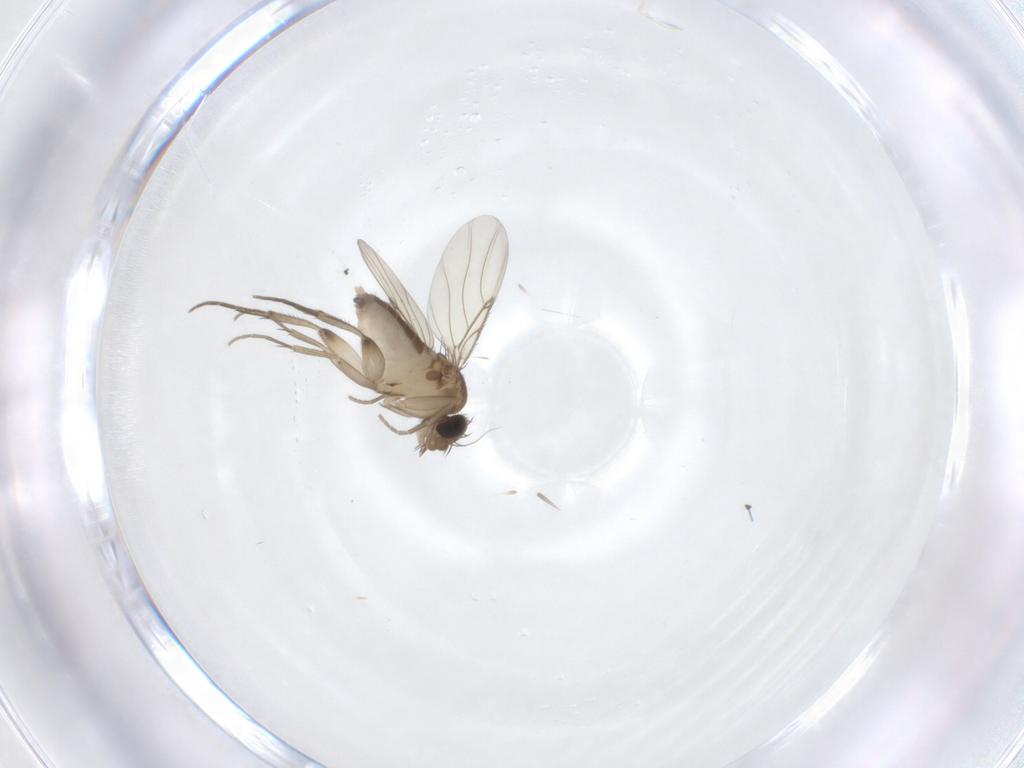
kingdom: Animalia
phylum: Arthropoda
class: Insecta
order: Diptera
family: Phoridae
